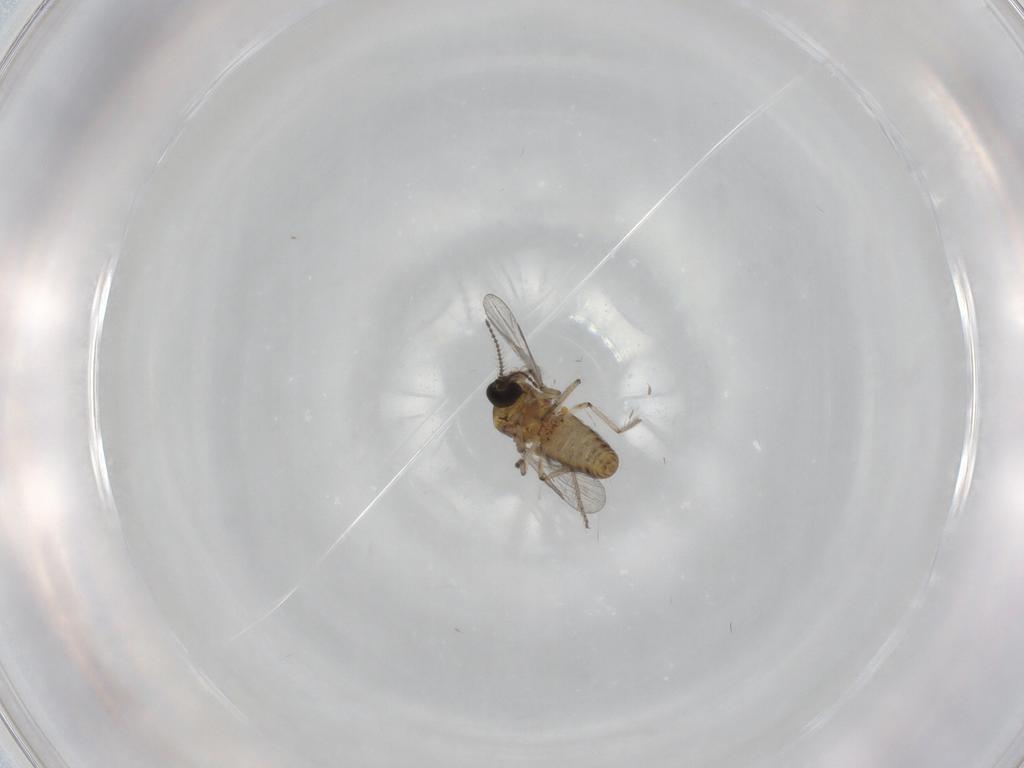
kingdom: Animalia
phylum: Arthropoda
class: Insecta
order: Diptera
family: Ceratopogonidae
